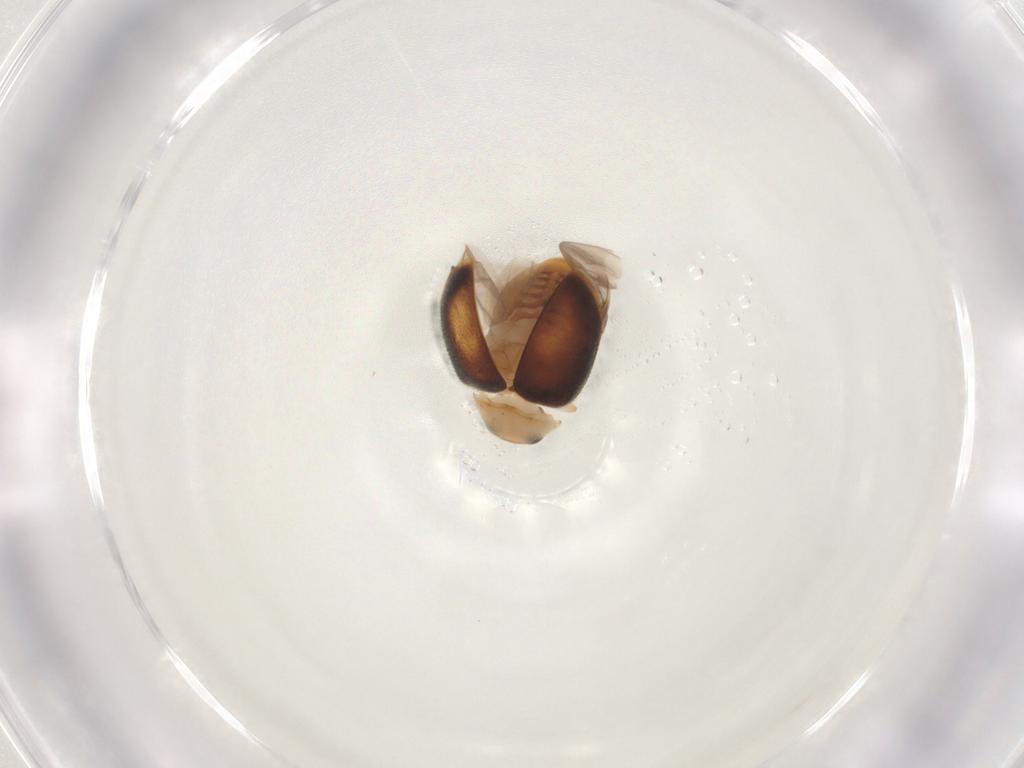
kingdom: Animalia
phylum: Arthropoda
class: Insecta
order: Coleoptera
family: Coccinellidae
